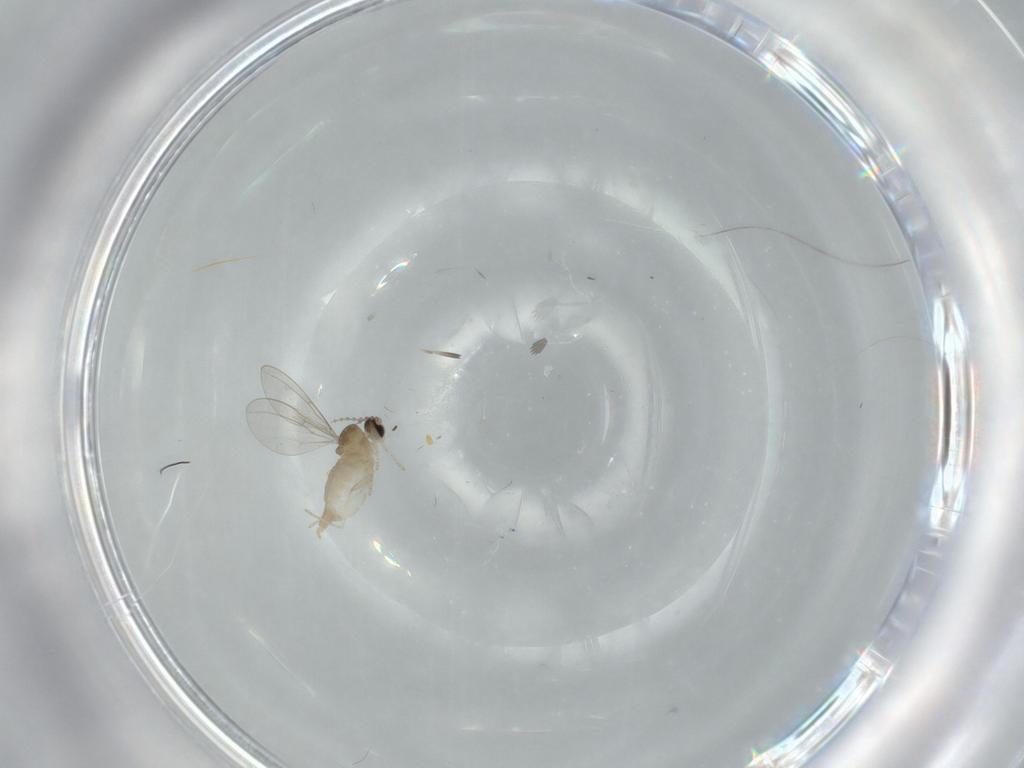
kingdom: Animalia
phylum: Arthropoda
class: Insecta
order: Diptera
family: Cecidomyiidae
